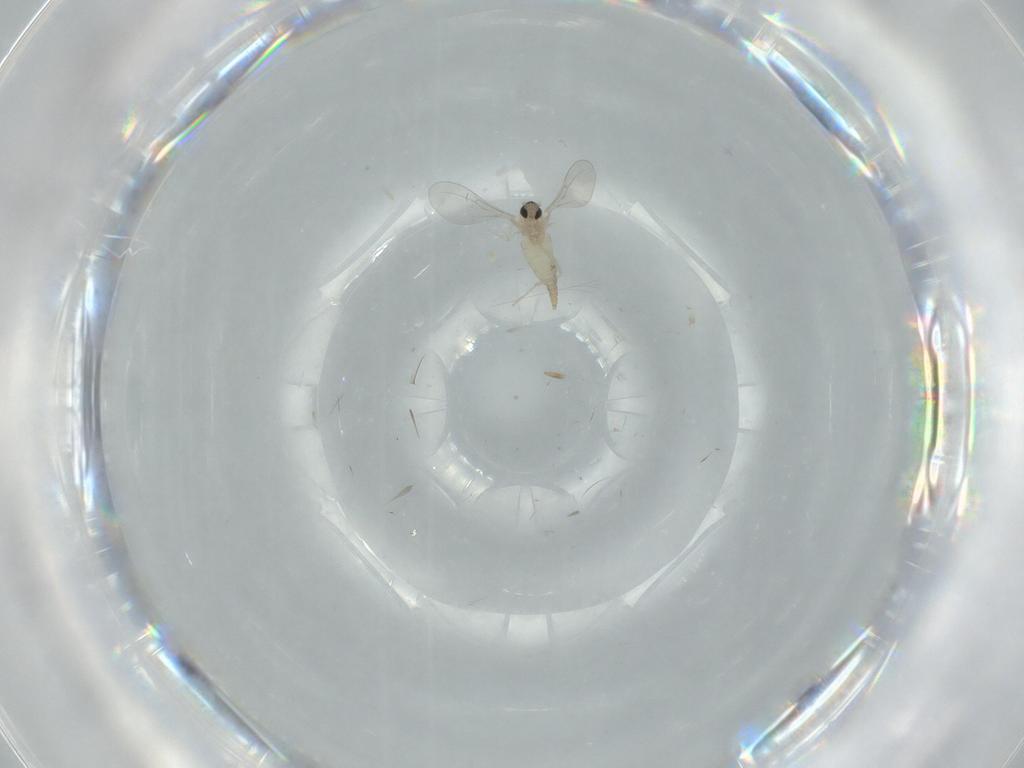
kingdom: Animalia
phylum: Arthropoda
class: Insecta
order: Diptera
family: Cecidomyiidae
